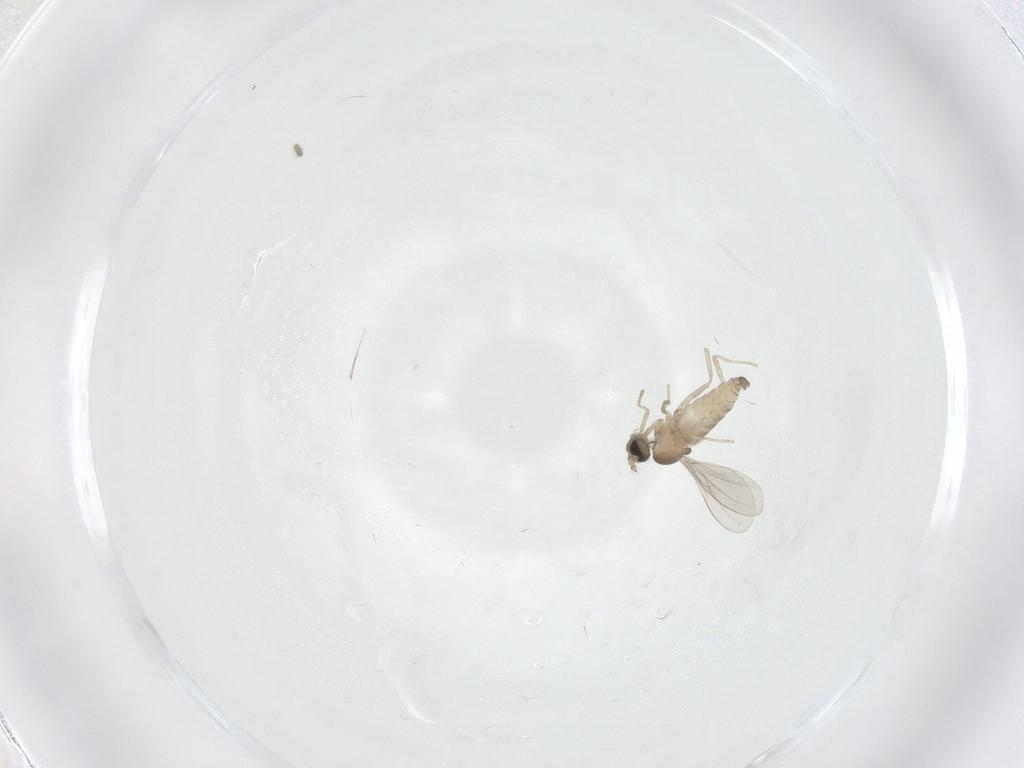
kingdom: Animalia
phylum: Arthropoda
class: Insecta
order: Diptera
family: Cecidomyiidae
